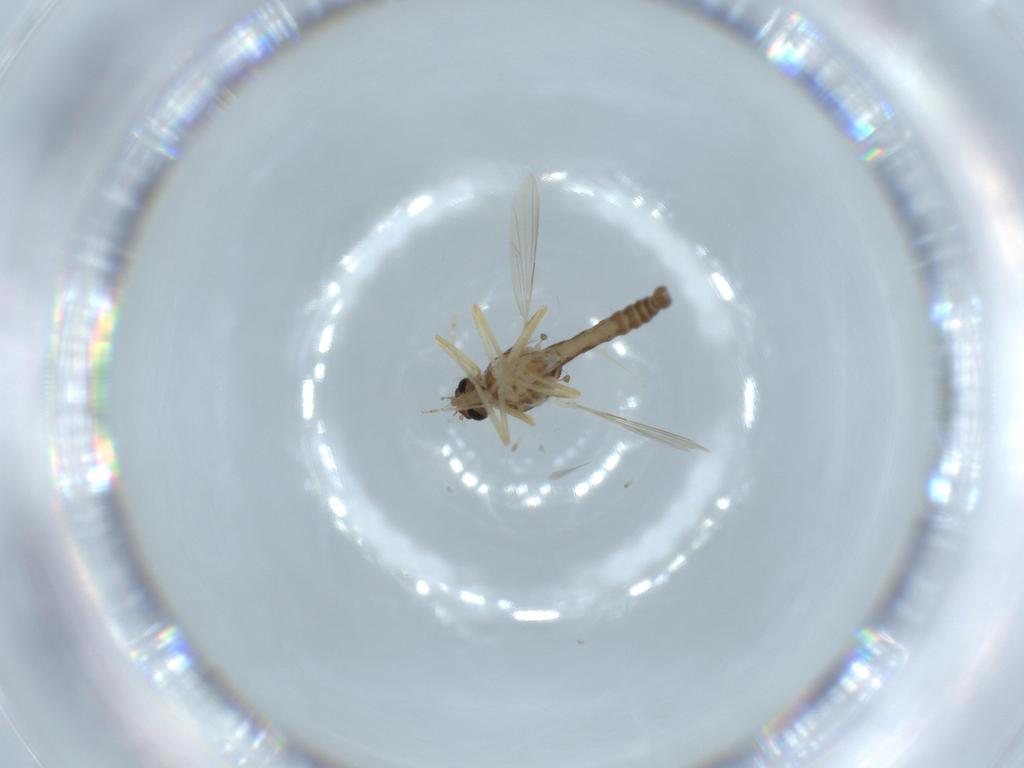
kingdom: Animalia
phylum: Arthropoda
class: Insecta
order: Diptera
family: Ceratopogonidae
